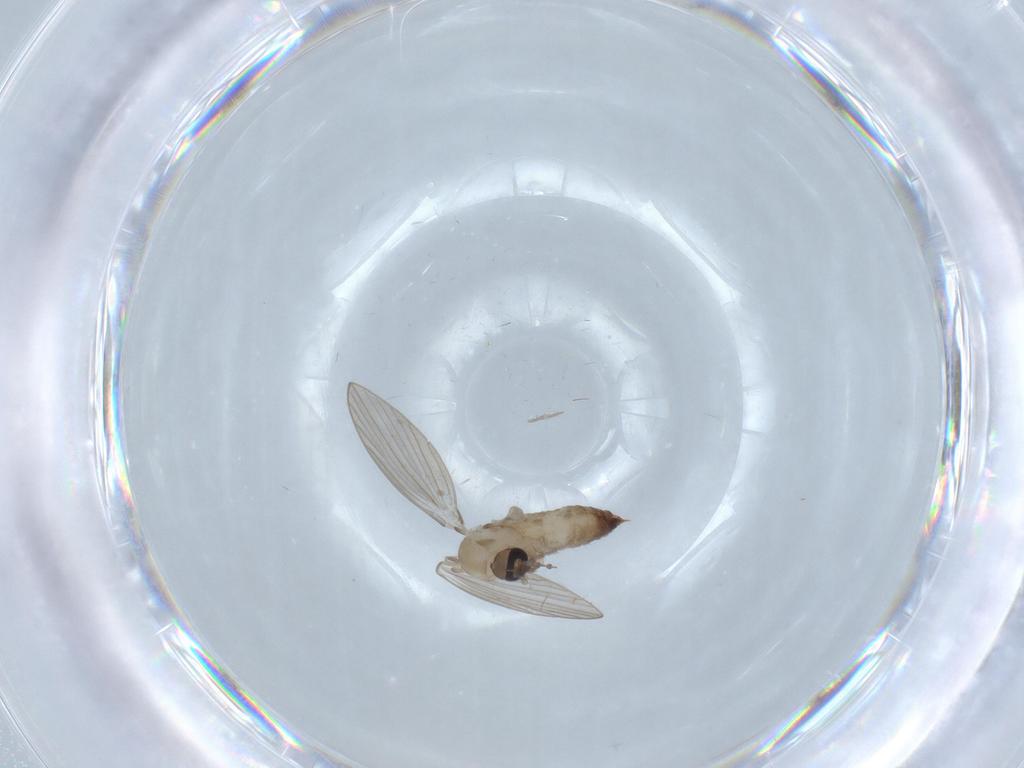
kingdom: Animalia
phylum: Arthropoda
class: Insecta
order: Diptera
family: Psychodidae
